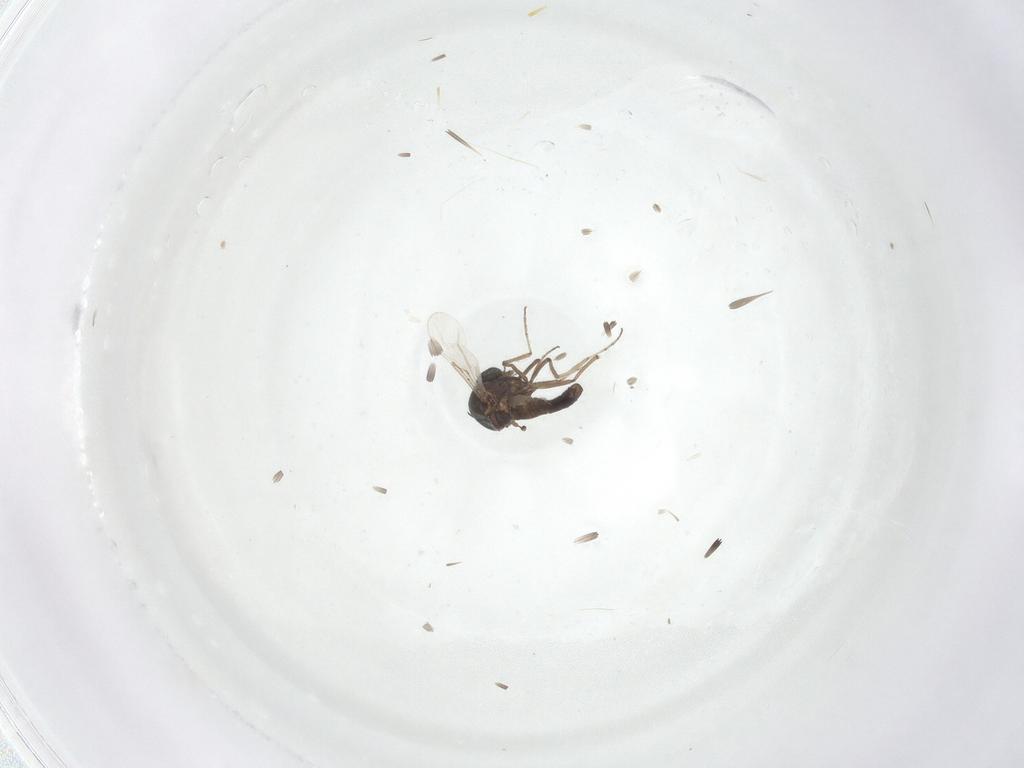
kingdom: Animalia
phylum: Arthropoda
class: Insecta
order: Diptera
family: Ceratopogonidae
